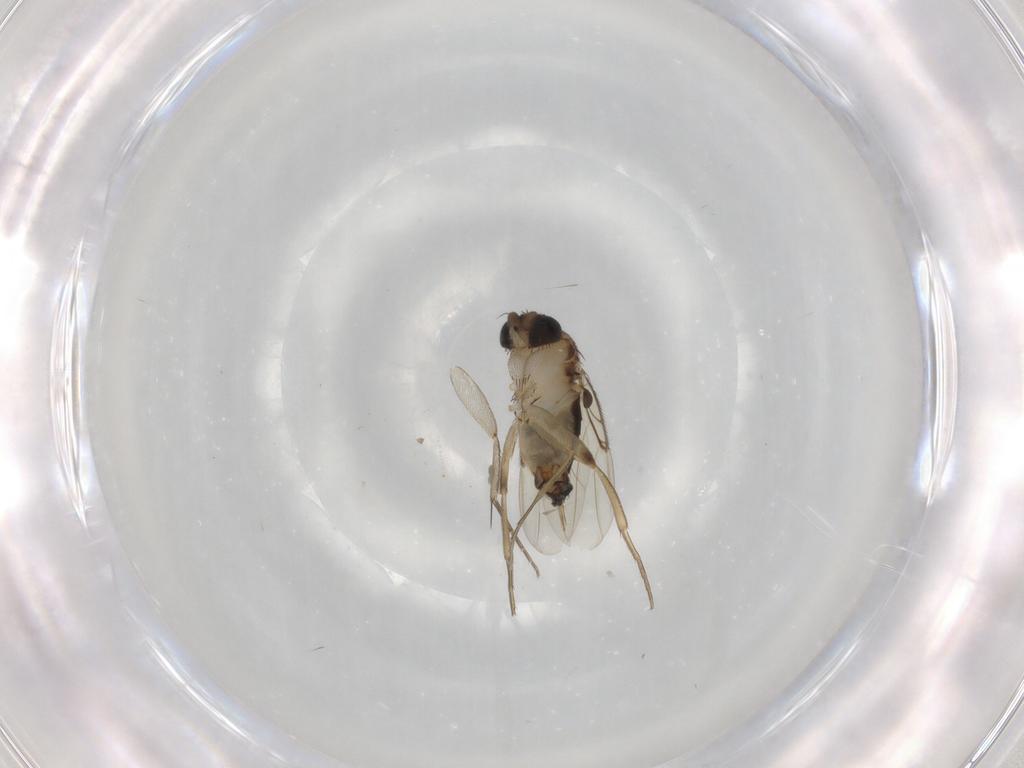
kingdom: Animalia
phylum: Arthropoda
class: Insecta
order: Diptera
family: Phoridae
